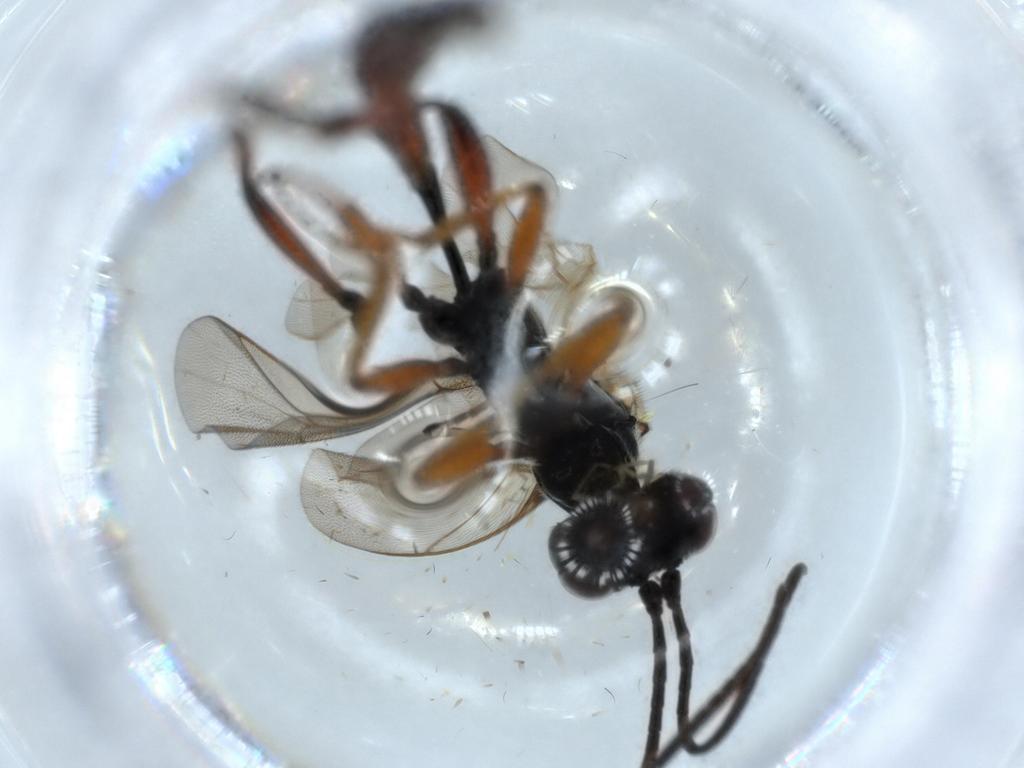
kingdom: Animalia
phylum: Arthropoda
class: Insecta
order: Hymenoptera
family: Ichneumonidae
